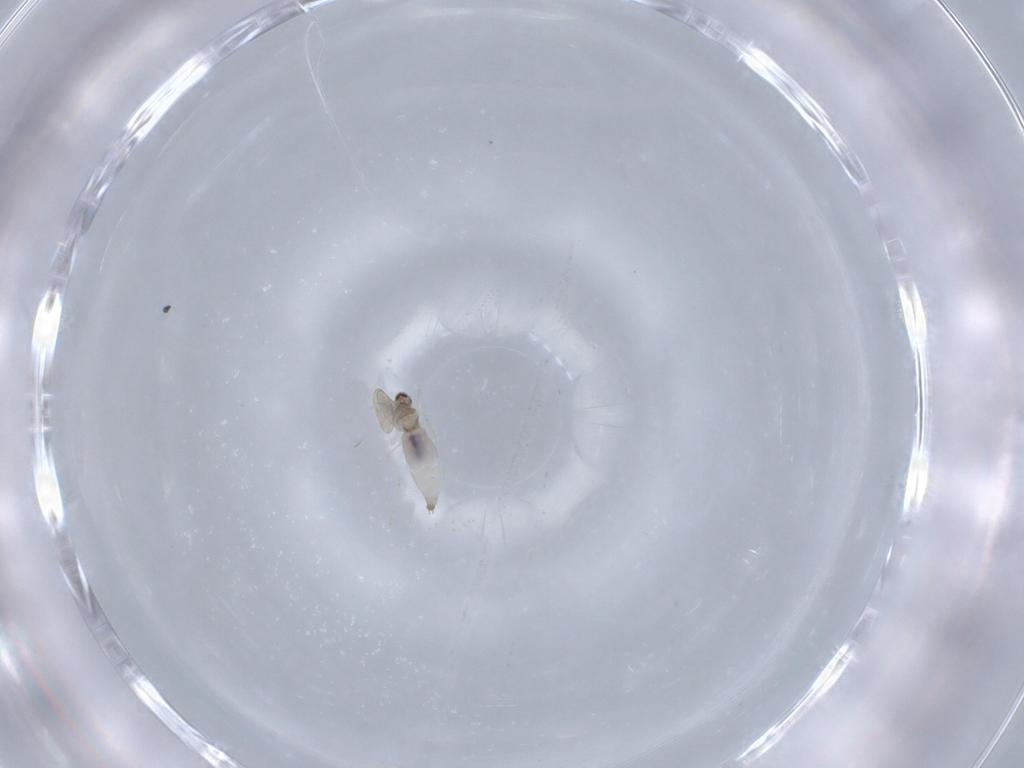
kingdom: Animalia
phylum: Arthropoda
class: Insecta
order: Diptera
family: Cecidomyiidae
